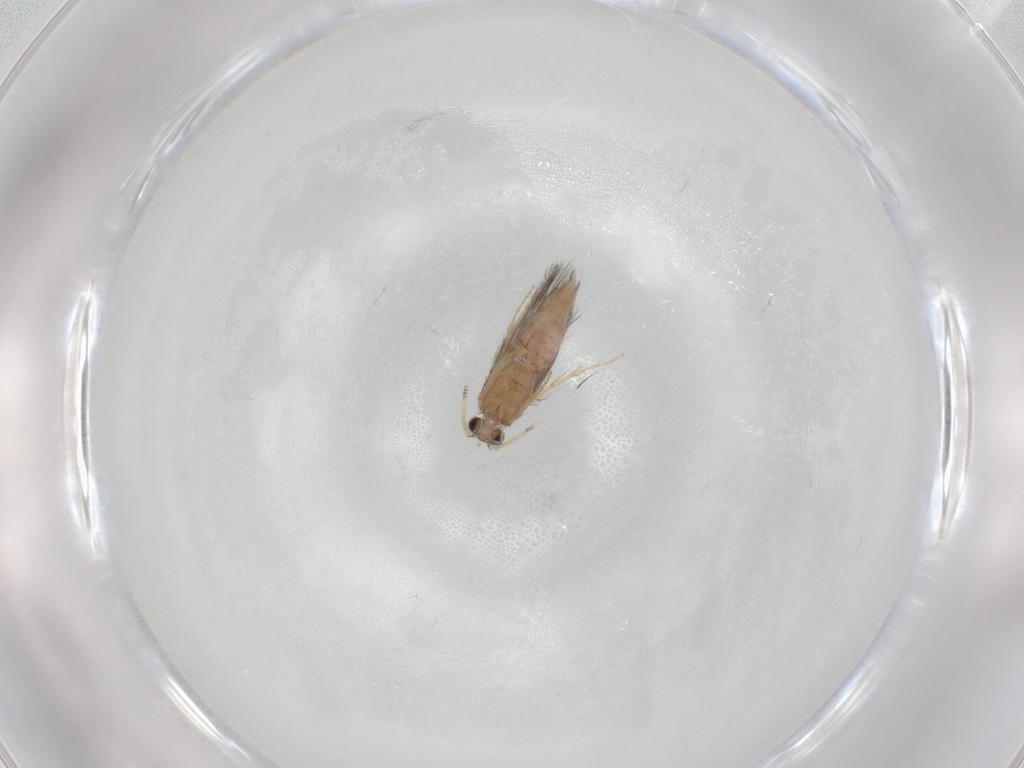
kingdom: Animalia
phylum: Arthropoda
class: Insecta
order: Trichoptera
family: Hydroptilidae
